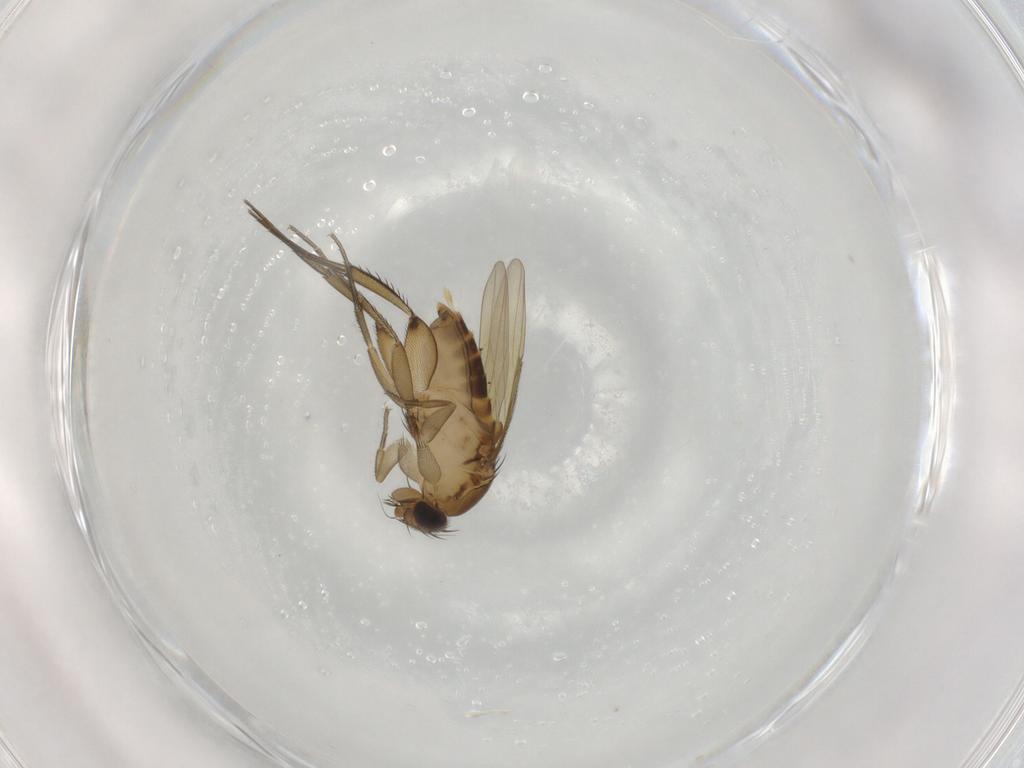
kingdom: Animalia
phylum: Arthropoda
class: Insecta
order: Diptera
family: Phoridae
